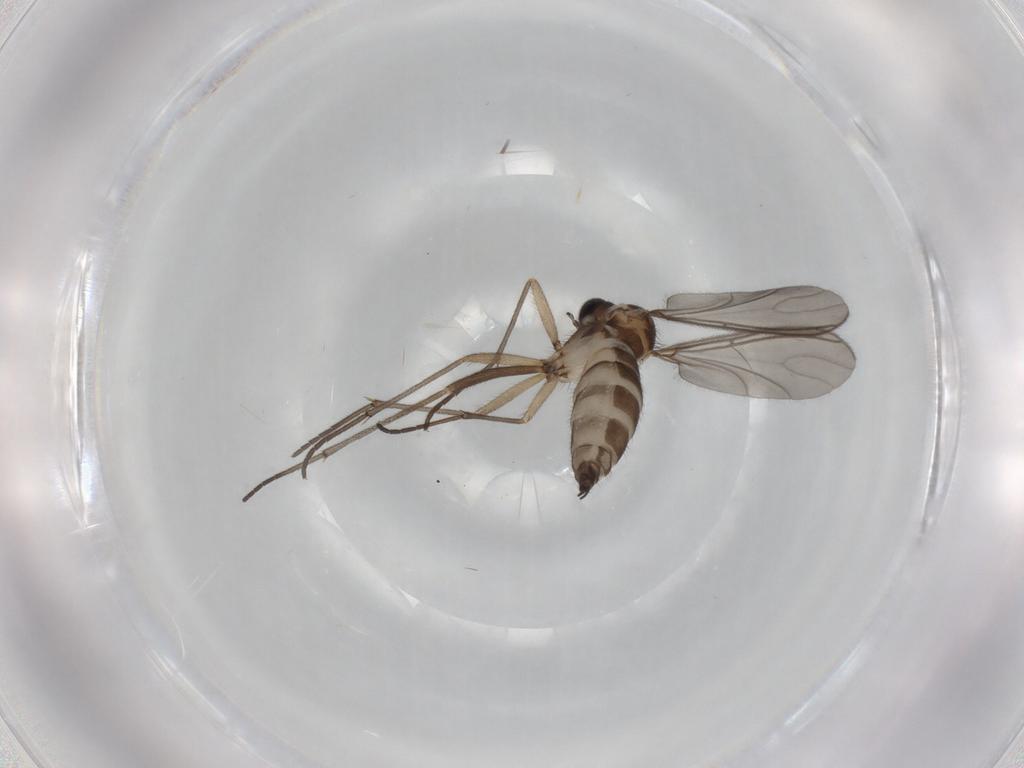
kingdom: Animalia
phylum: Arthropoda
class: Insecta
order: Diptera
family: Sciaridae
